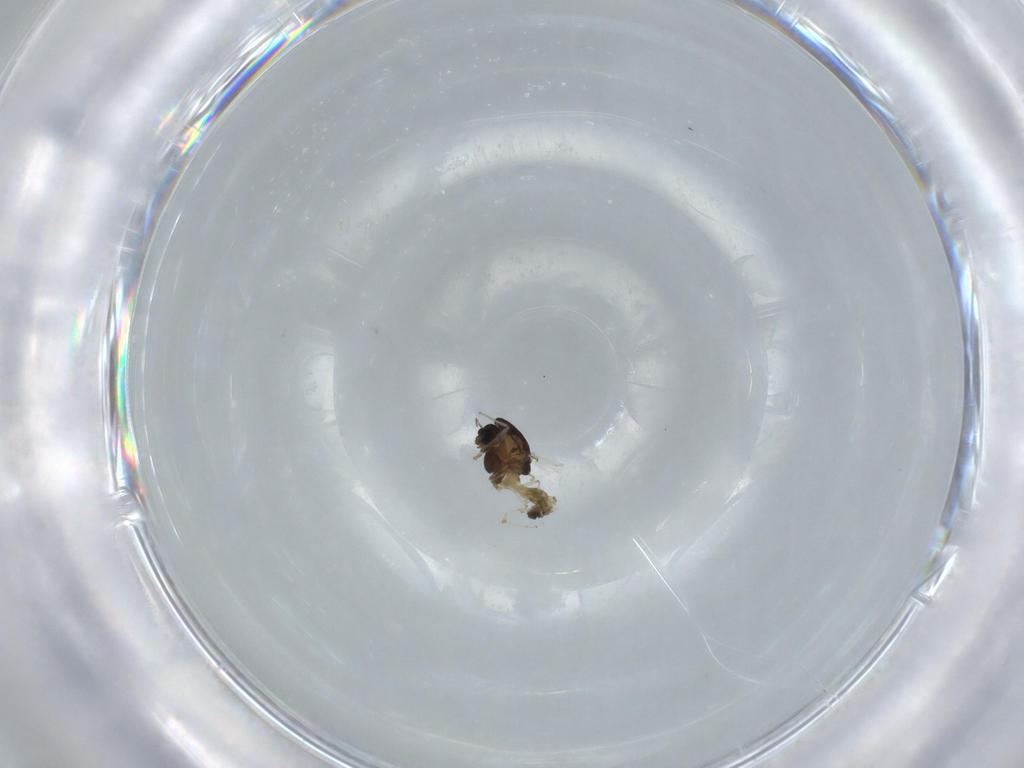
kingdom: Animalia
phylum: Arthropoda
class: Insecta
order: Diptera
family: Chironomidae
